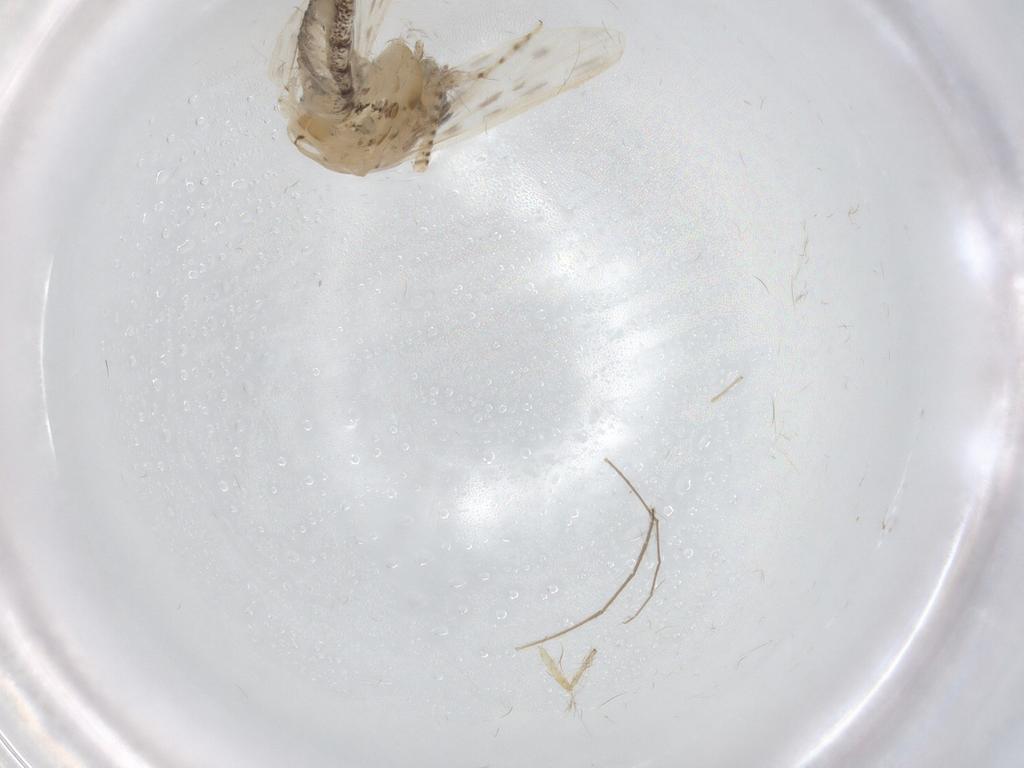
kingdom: Animalia
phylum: Arthropoda
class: Insecta
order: Diptera
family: Chaoboridae
